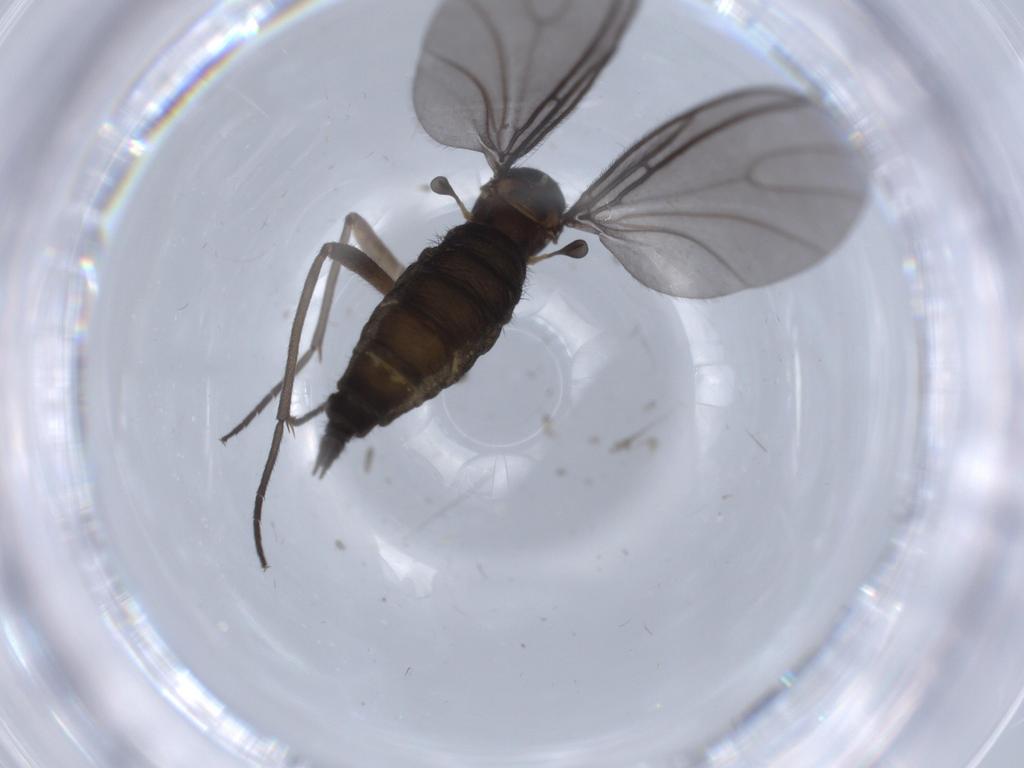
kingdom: Animalia
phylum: Arthropoda
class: Insecta
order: Diptera
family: Sciaridae
